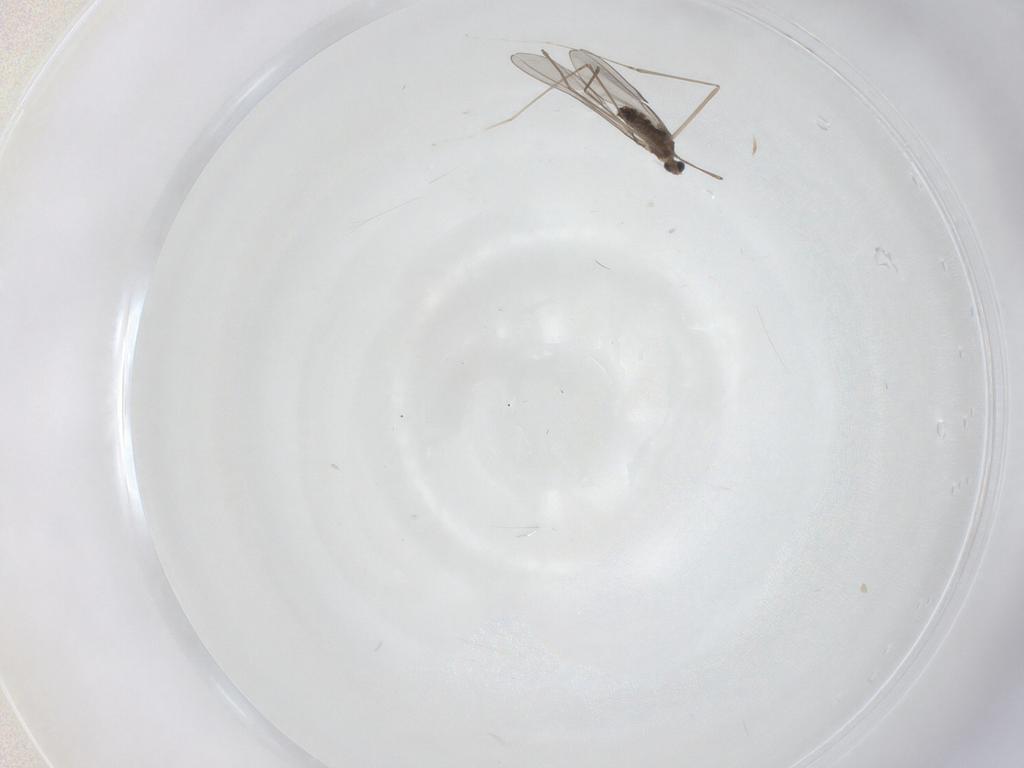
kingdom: Animalia
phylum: Arthropoda
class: Insecta
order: Diptera
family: Cecidomyiidae
